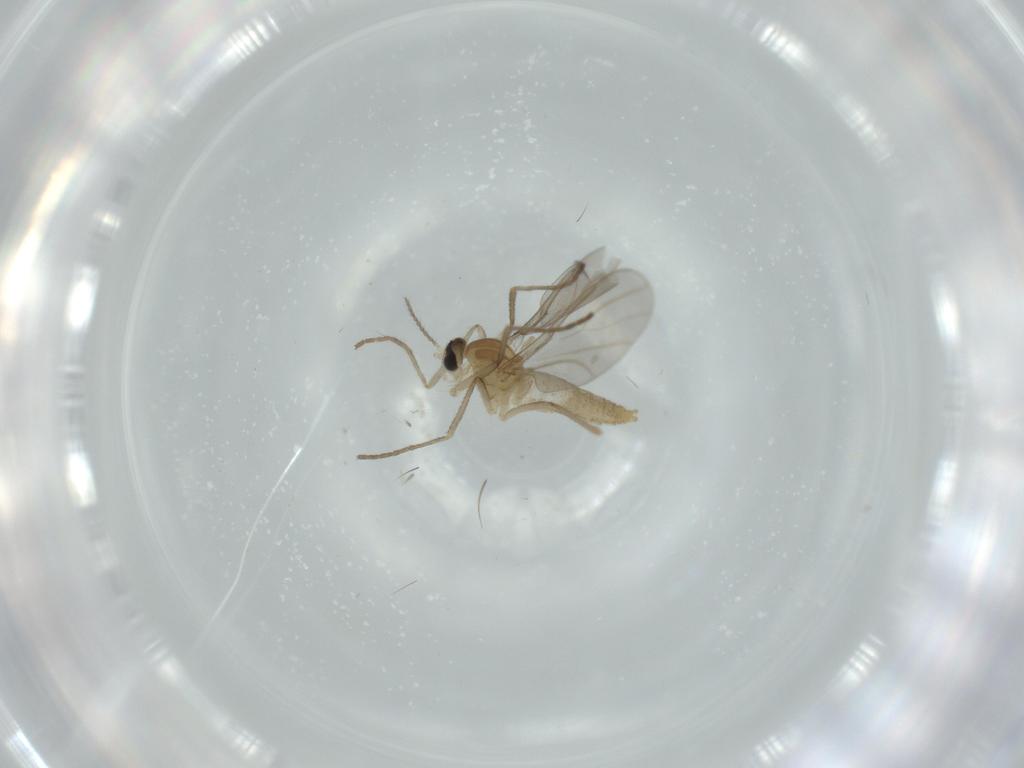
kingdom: Animalia
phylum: Arthropoda
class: Insecta
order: Diptera
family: Cecidomyiidae
